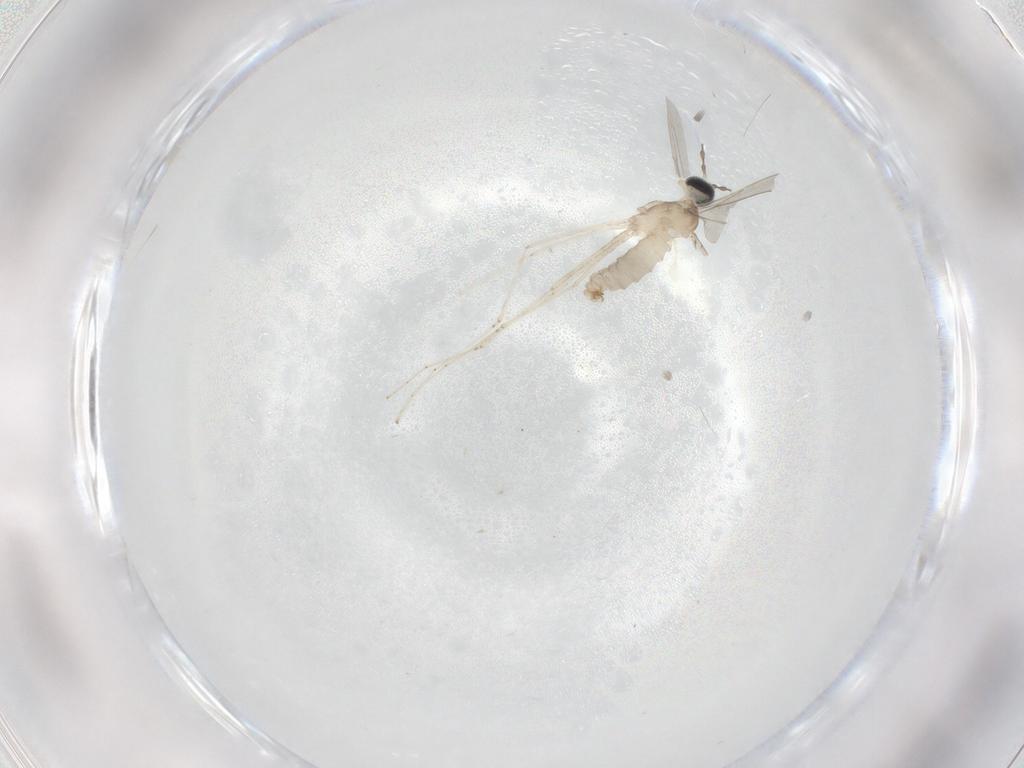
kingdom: Animalia
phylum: Arthropoda
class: Insecta
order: Diptera
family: Cecidomyiidae
